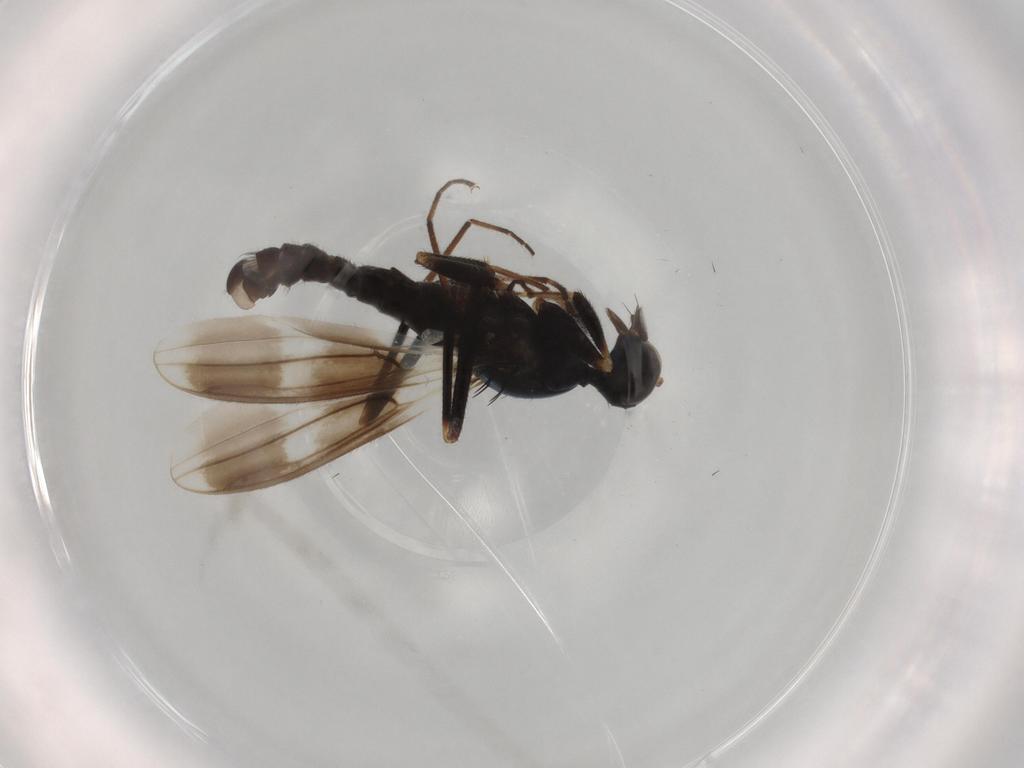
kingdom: Animalia
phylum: Arthropoda
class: Insecta
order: Diptera
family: Hybotidae
